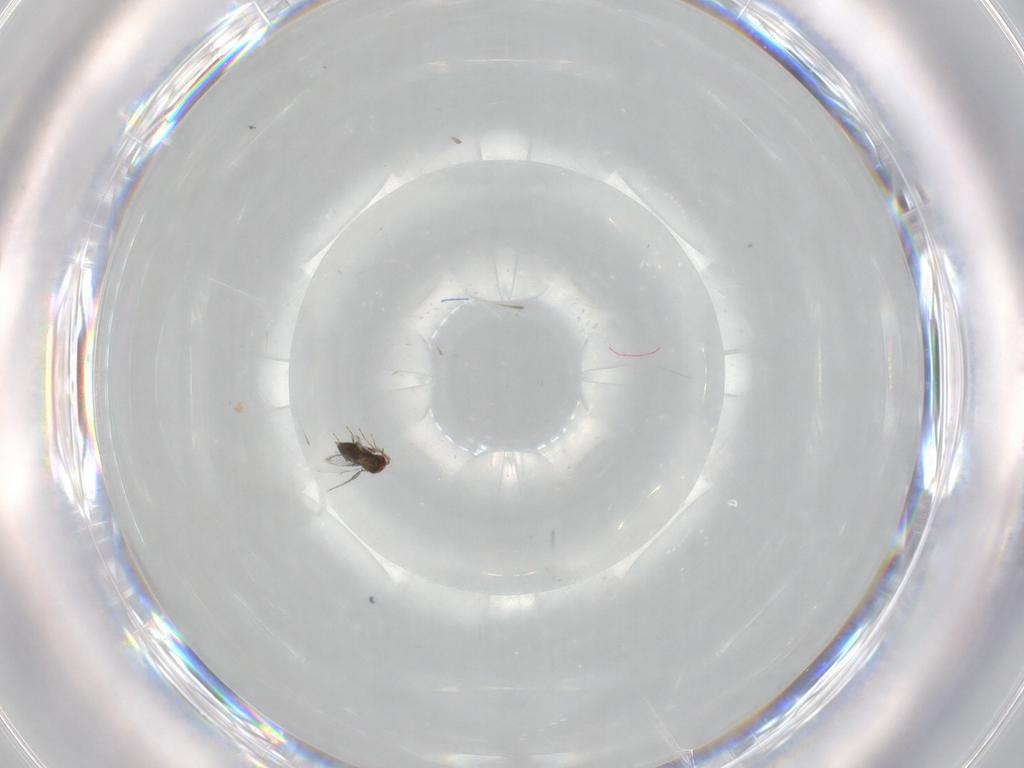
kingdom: Animalia
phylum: Arthropoda
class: Insecta
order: Hymenoptera
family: Trichogrammatidae
